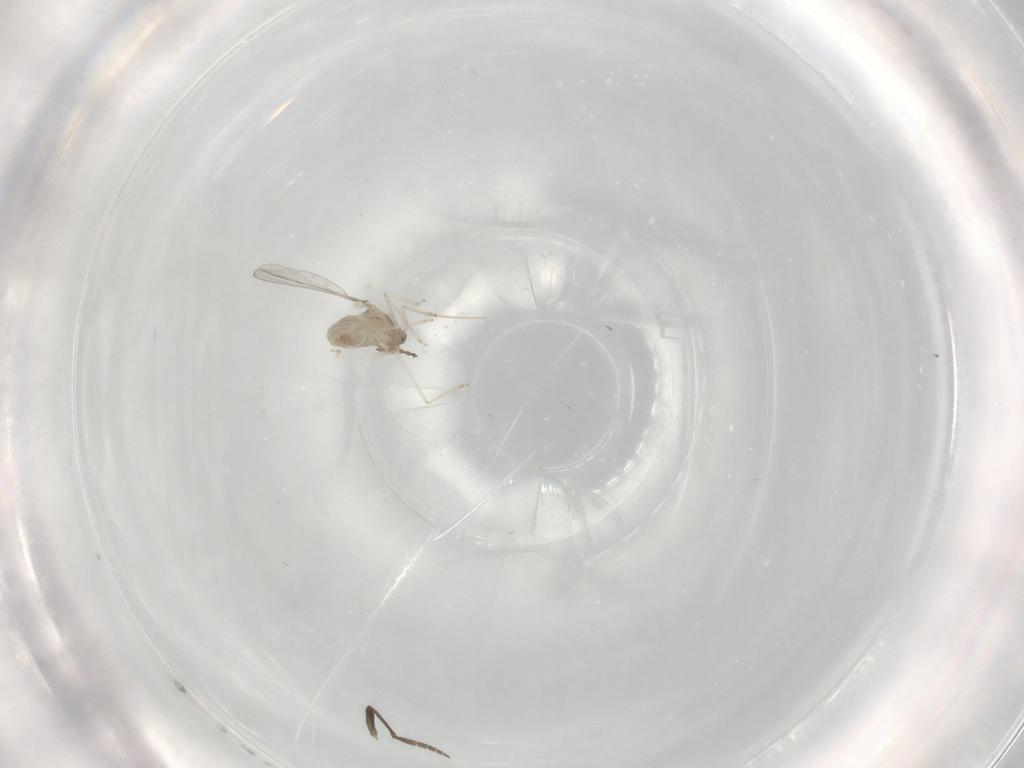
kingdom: Animalia
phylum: Arthropoda
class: Insecta
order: Diptera
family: Cecidomyiidae
